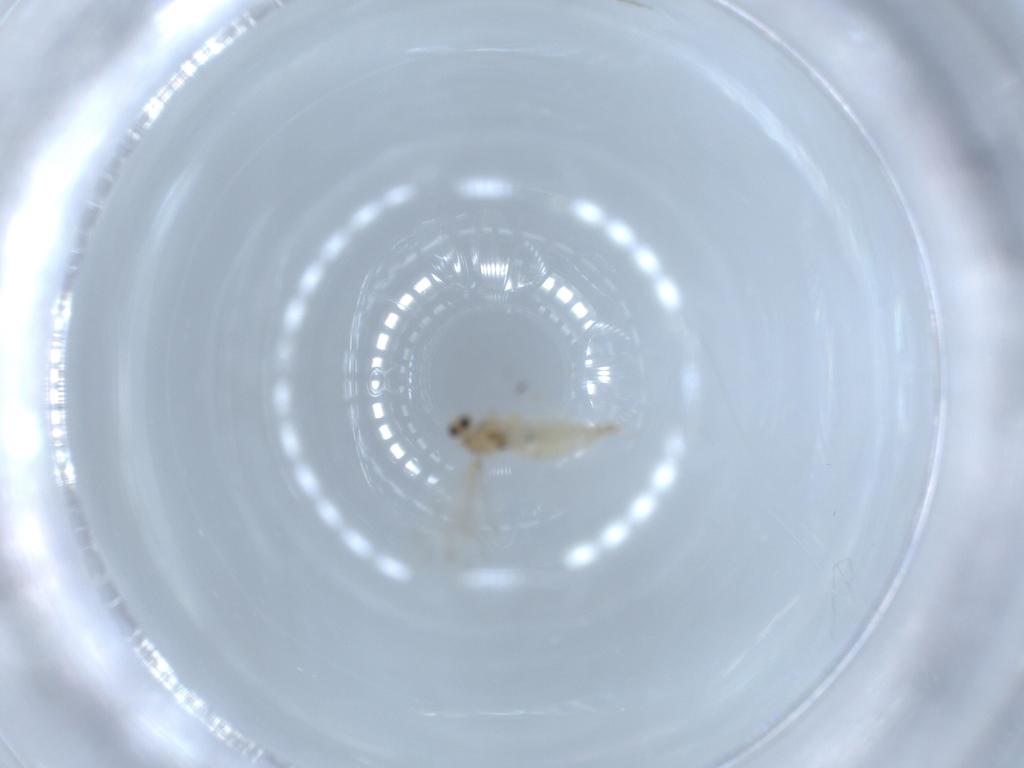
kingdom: Animalia
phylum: Arthropoda
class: Insecta
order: Diptera
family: Cecidomyiidae
